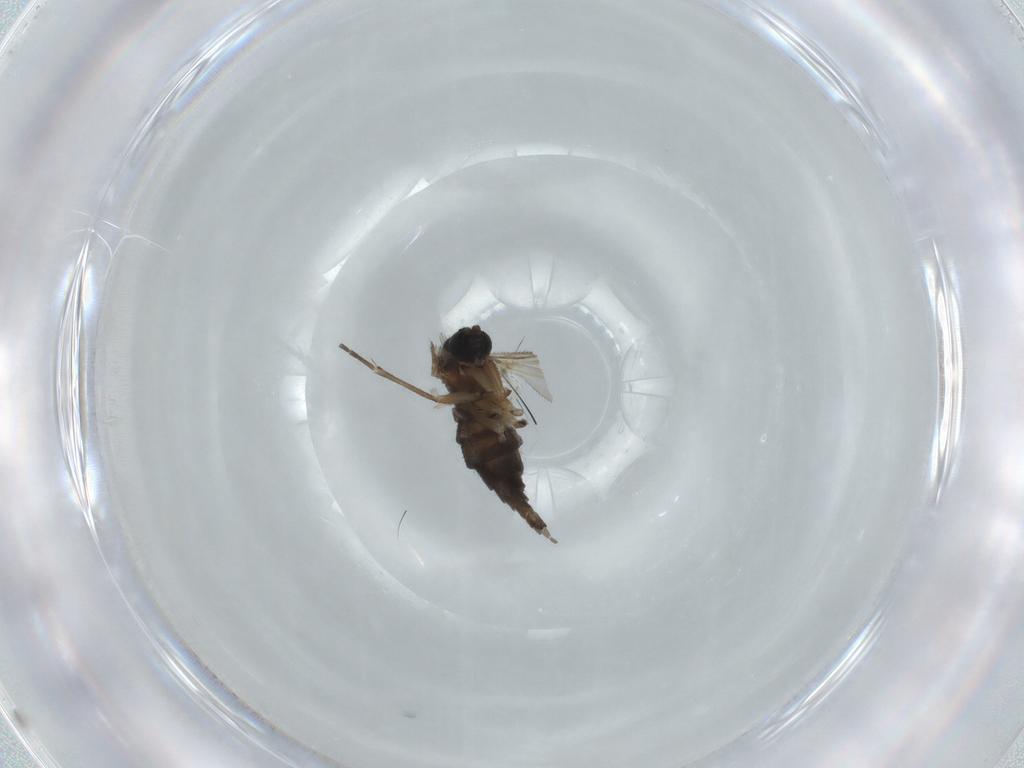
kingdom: Animalia
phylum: Arthropoda
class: Insecta
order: Diptera
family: Sciaridae
